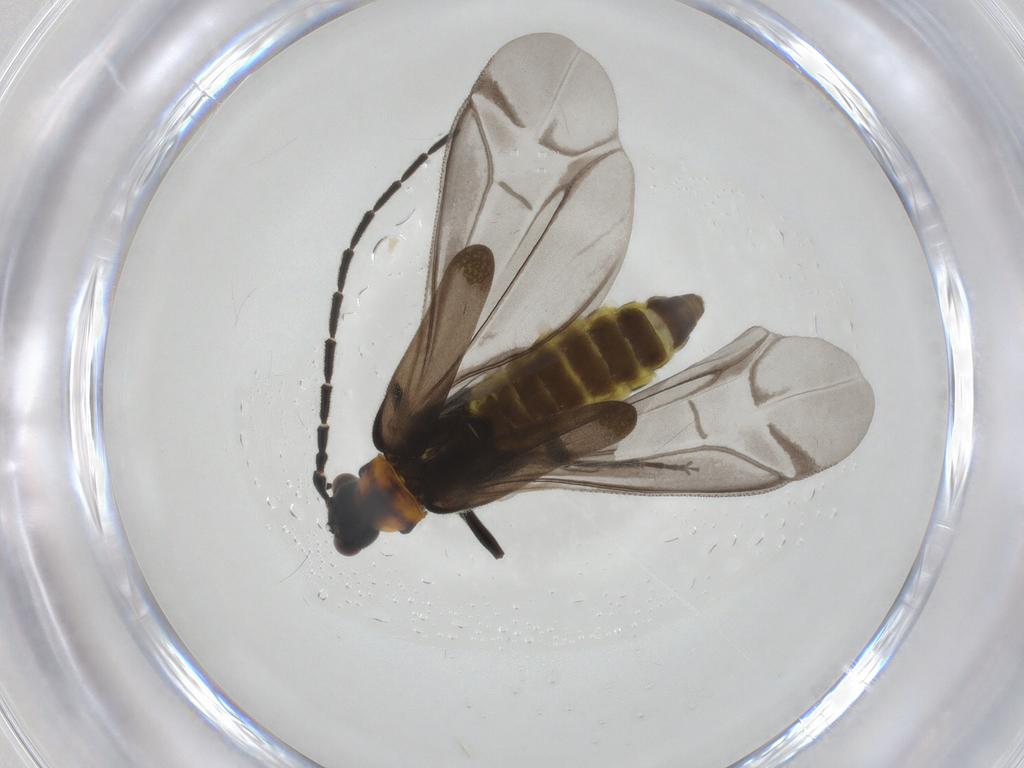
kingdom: Animalia
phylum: Arthropoda
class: Insecta
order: Coleoptera
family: Cantharidae
